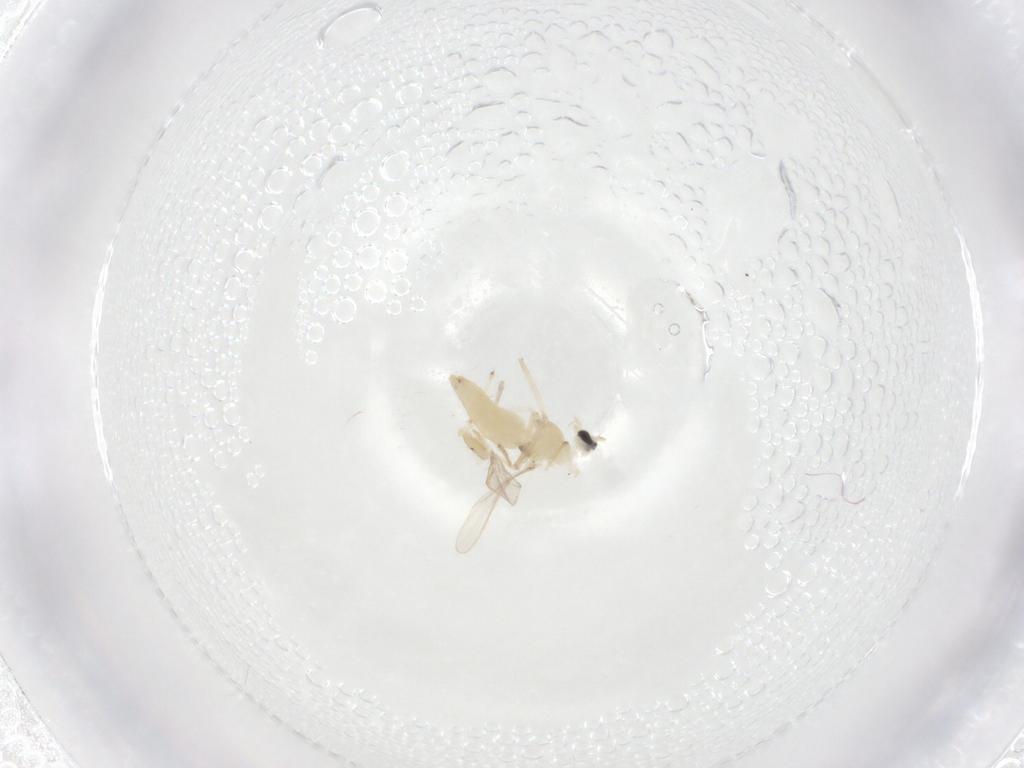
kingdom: Animalia
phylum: Arthropoda
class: Insecta
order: Diptera
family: Chironomidae
